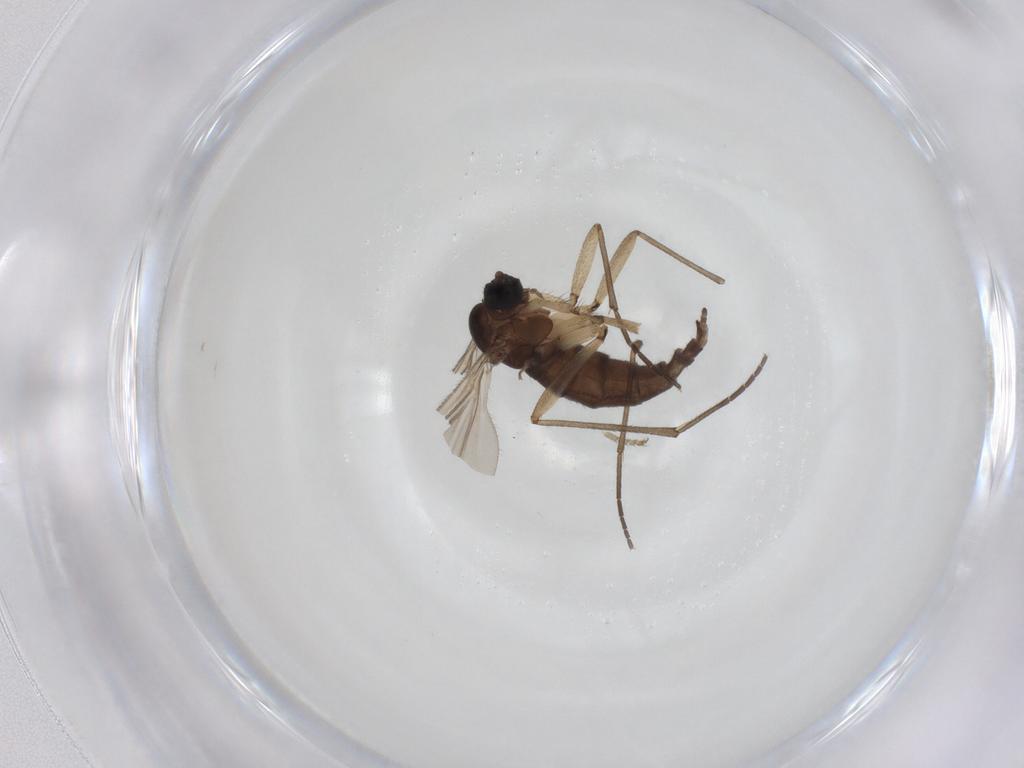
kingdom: Animalia
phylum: Arthropoda
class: Insecta
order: Diptera
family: Sciaridae
